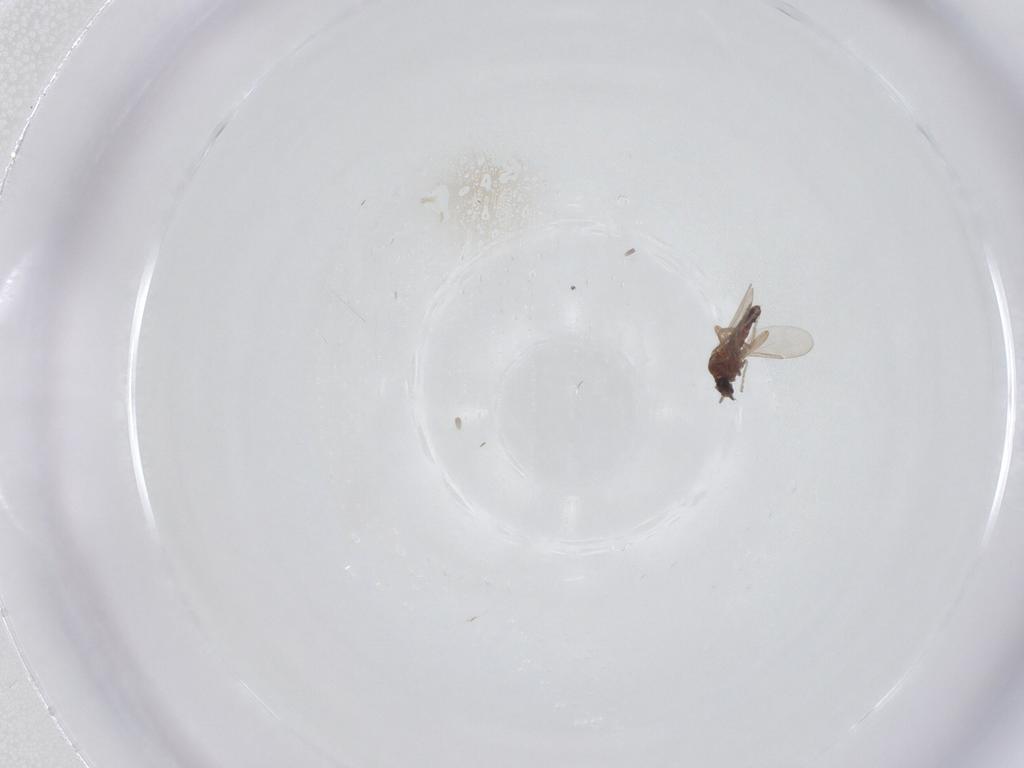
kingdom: Animalia
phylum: Arthropoda
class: Insecta
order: Diptera
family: Ceratopogonidae
